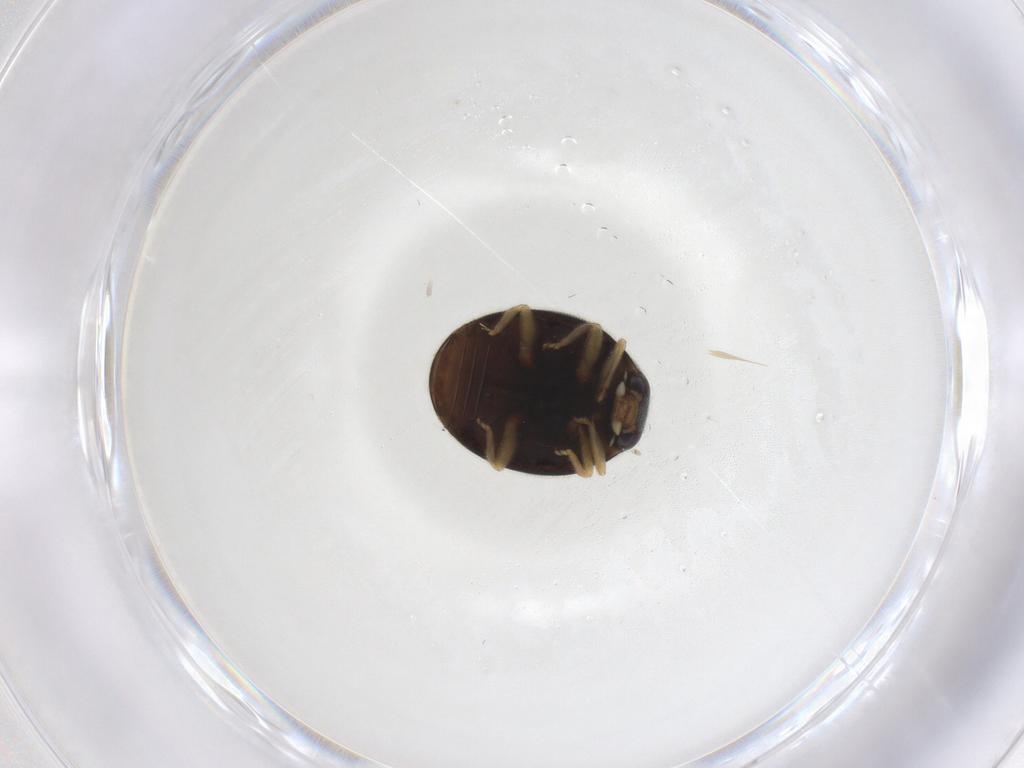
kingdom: Animalia
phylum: Arthropoda
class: Insecta
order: Coleoptera
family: Coccinellidae
